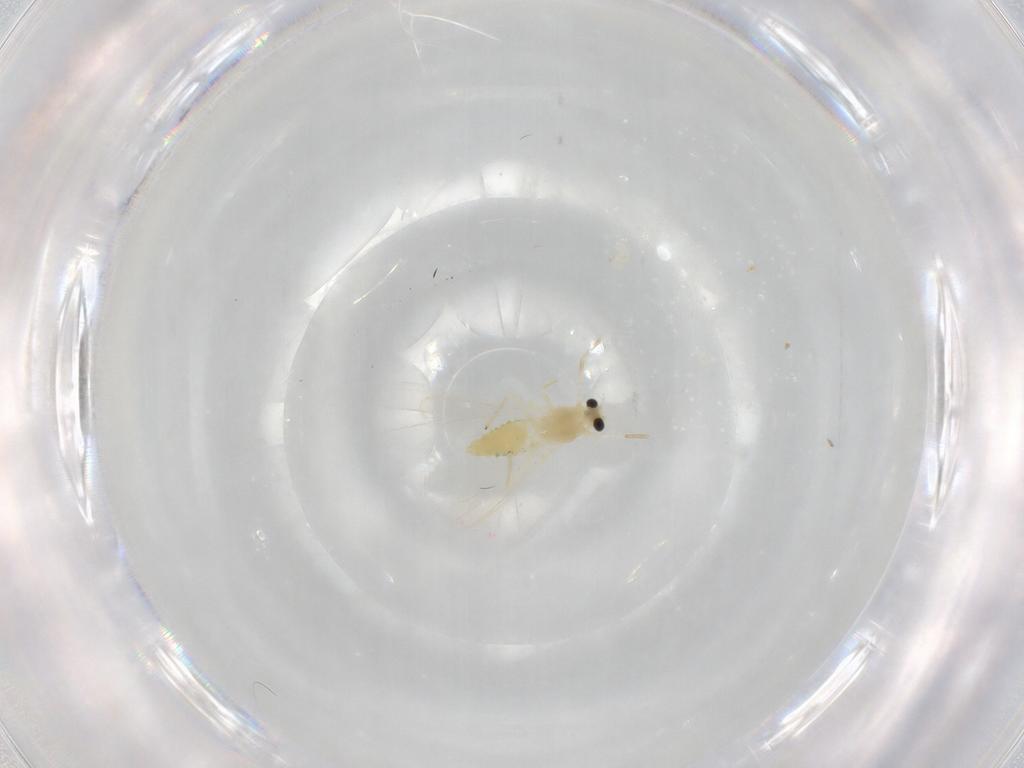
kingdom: Animalia
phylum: Arthropoda
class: Insecta
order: Diptera
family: Chironomidae
